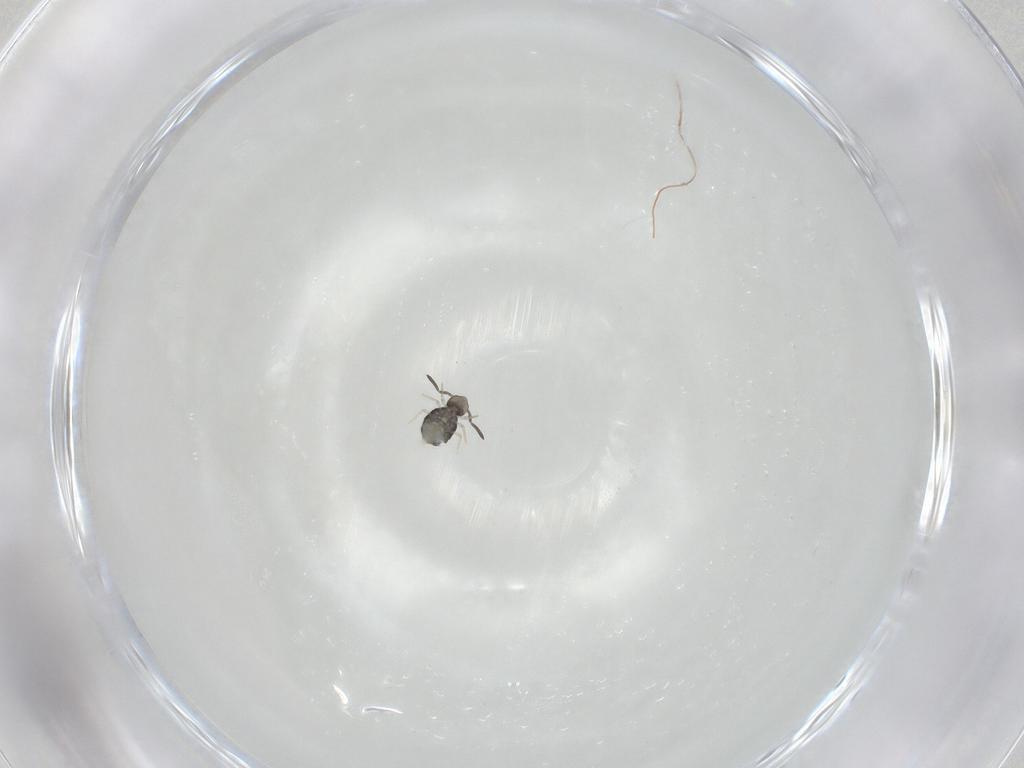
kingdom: Animalia
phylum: Arthropoda
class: Collembola
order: Symphypleona
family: Katiannidae
